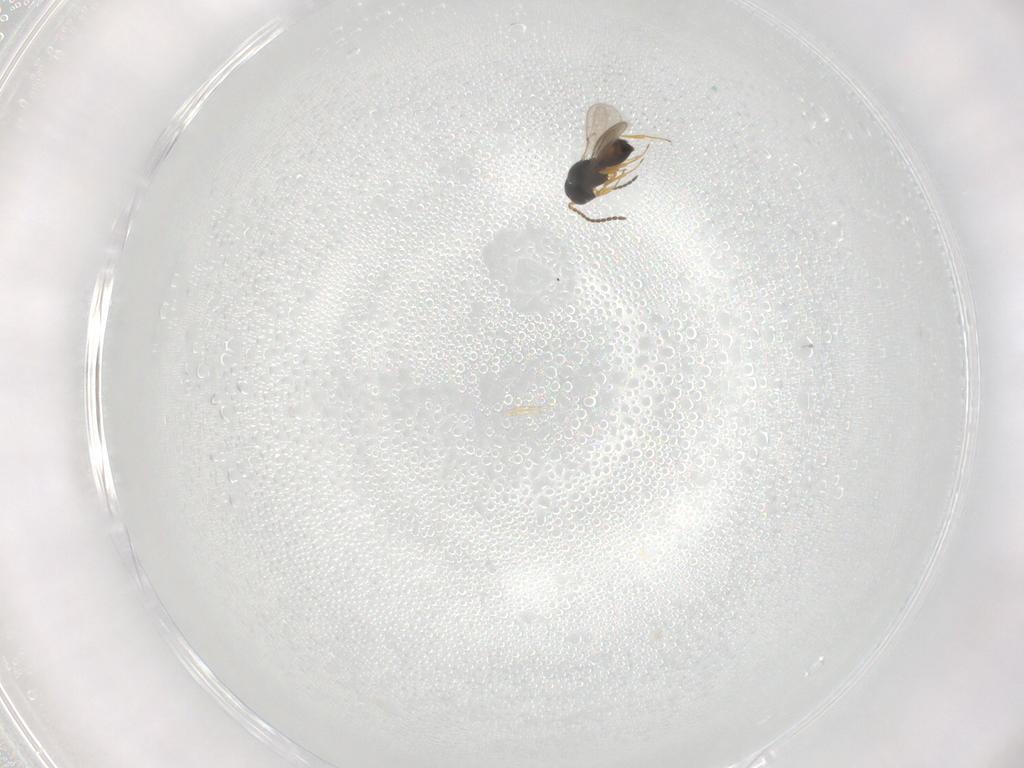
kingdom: Animalia
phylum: Arthropoda
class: Insecta
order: Hymenoptera
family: Scelionidae
